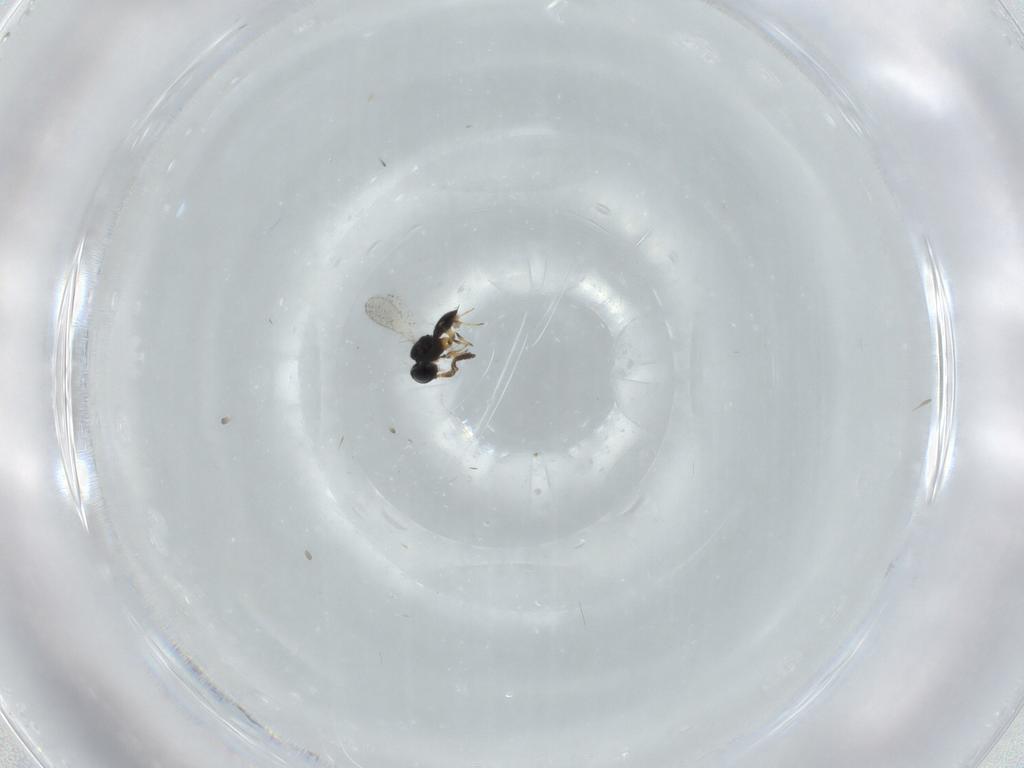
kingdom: Animalia
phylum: Arthropoda
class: Insecta
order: Hymenoptera
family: Scelionidae
